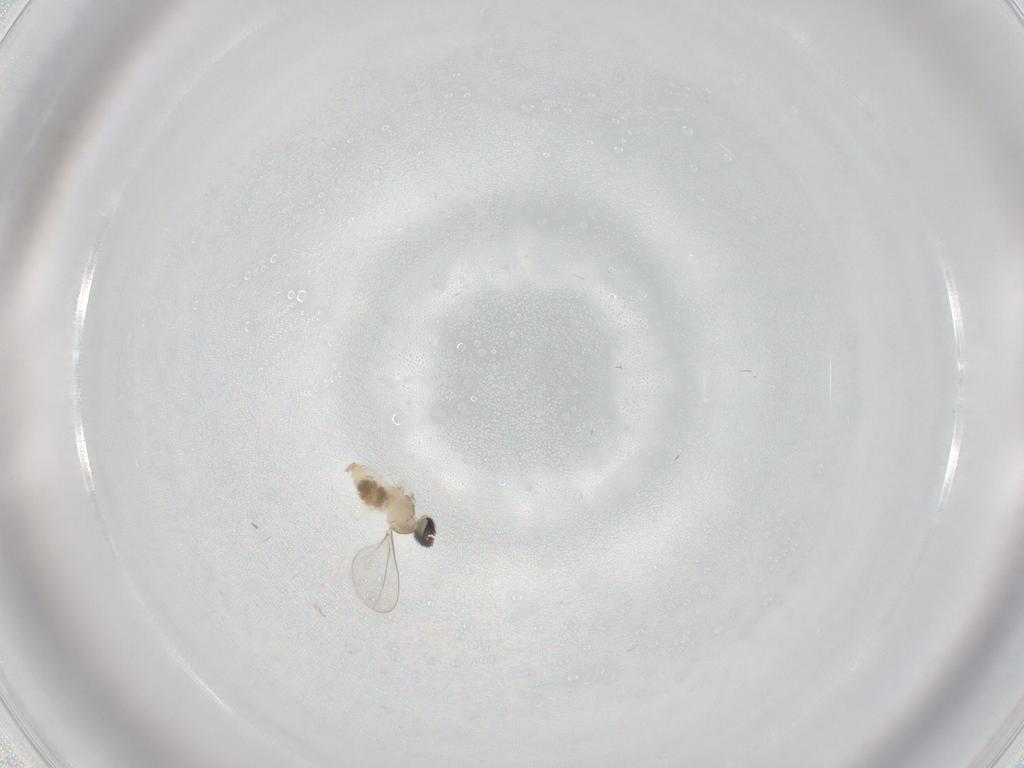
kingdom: Animalia
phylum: Arthropoda
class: Insecta
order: Diptera
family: Cecidomyiidae
